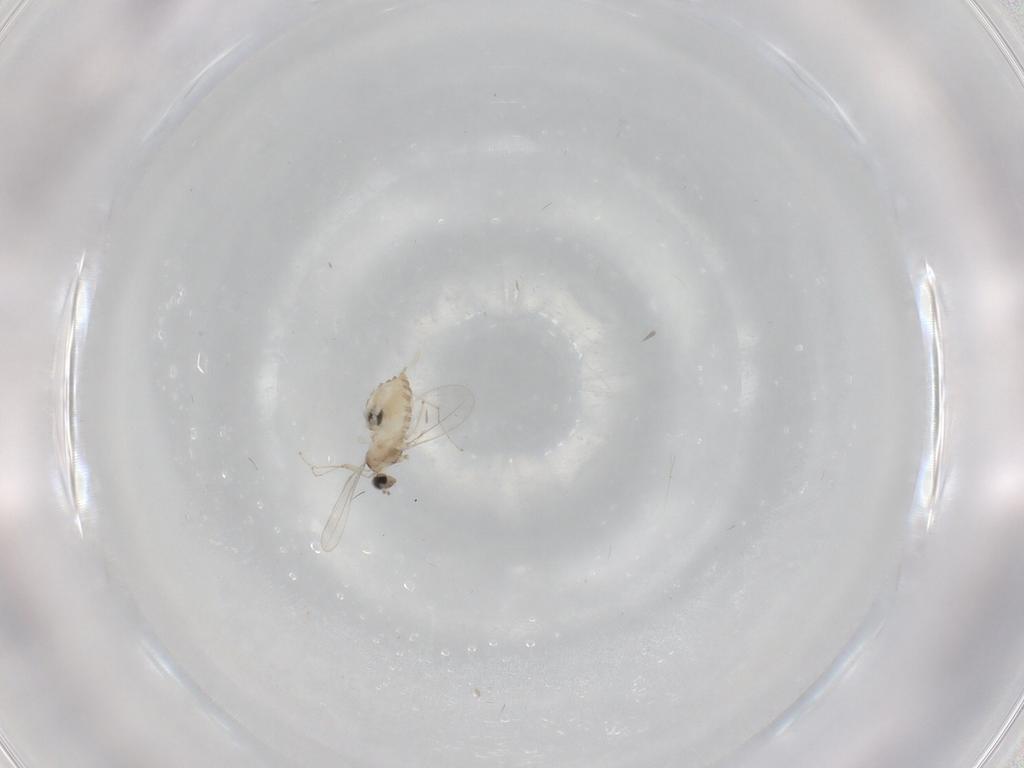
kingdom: Animalia
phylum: Arthropoda
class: Insecta
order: Diptera
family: Cecidomyiidae
